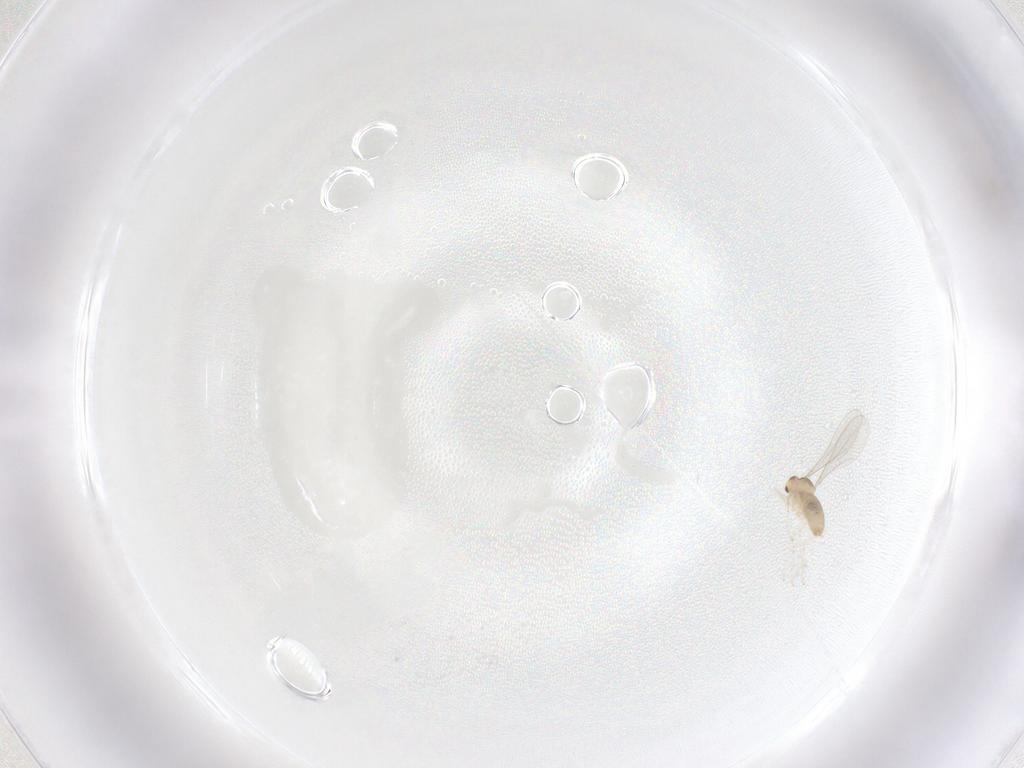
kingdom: Animalia
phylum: Arthropoda
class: Insecta
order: Diptera
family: Cecidomyiidae
